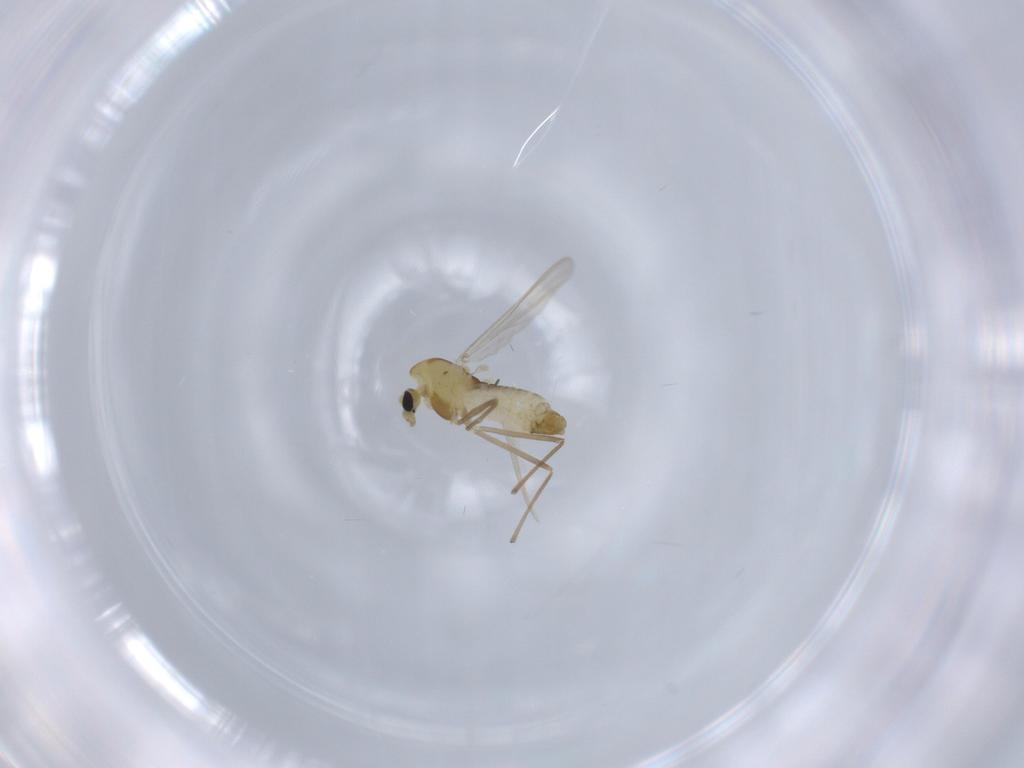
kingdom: Animalia
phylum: Arthropoda
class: Insecta
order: Diptera
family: Chironomidae
